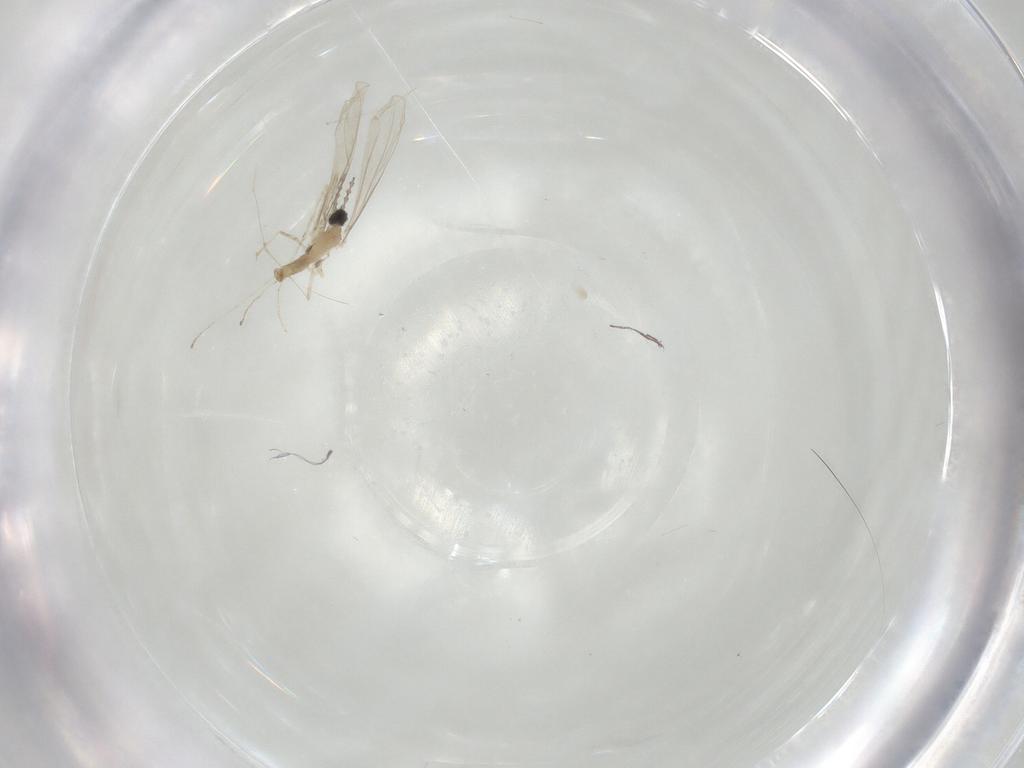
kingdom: Animalia
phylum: Arthropoda
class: Insecta
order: Diptera
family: Cecidomyiidae
